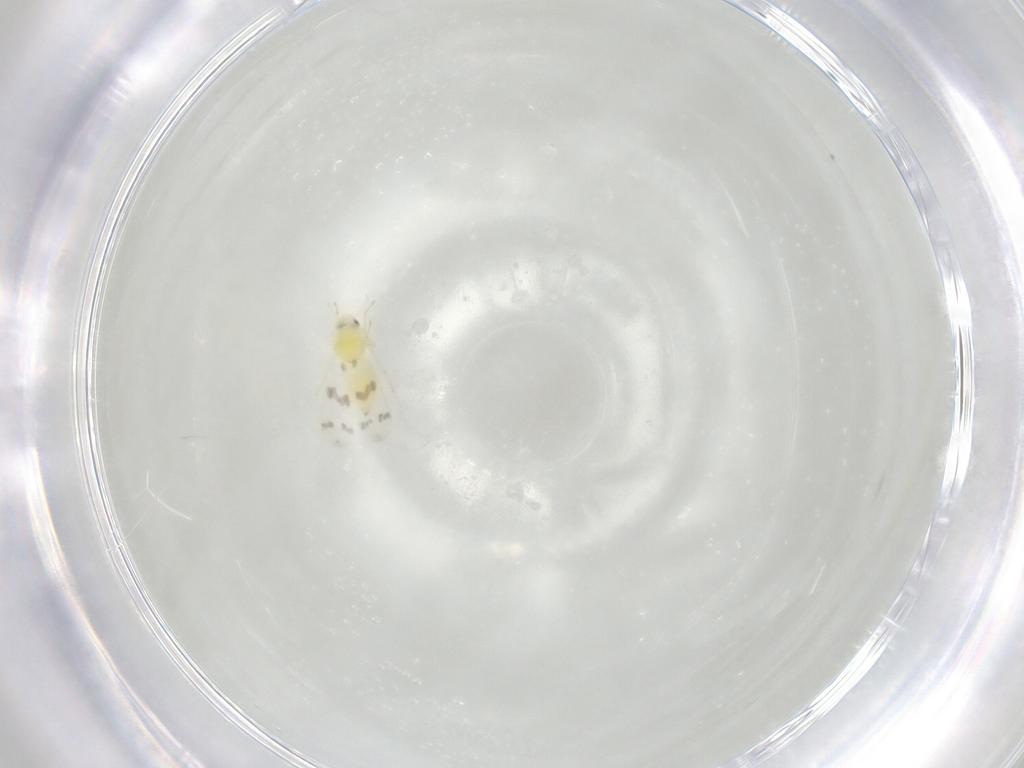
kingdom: Animalia
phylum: Arthropoda
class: Insecta
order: Hemiptera
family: Aleyrodidae
